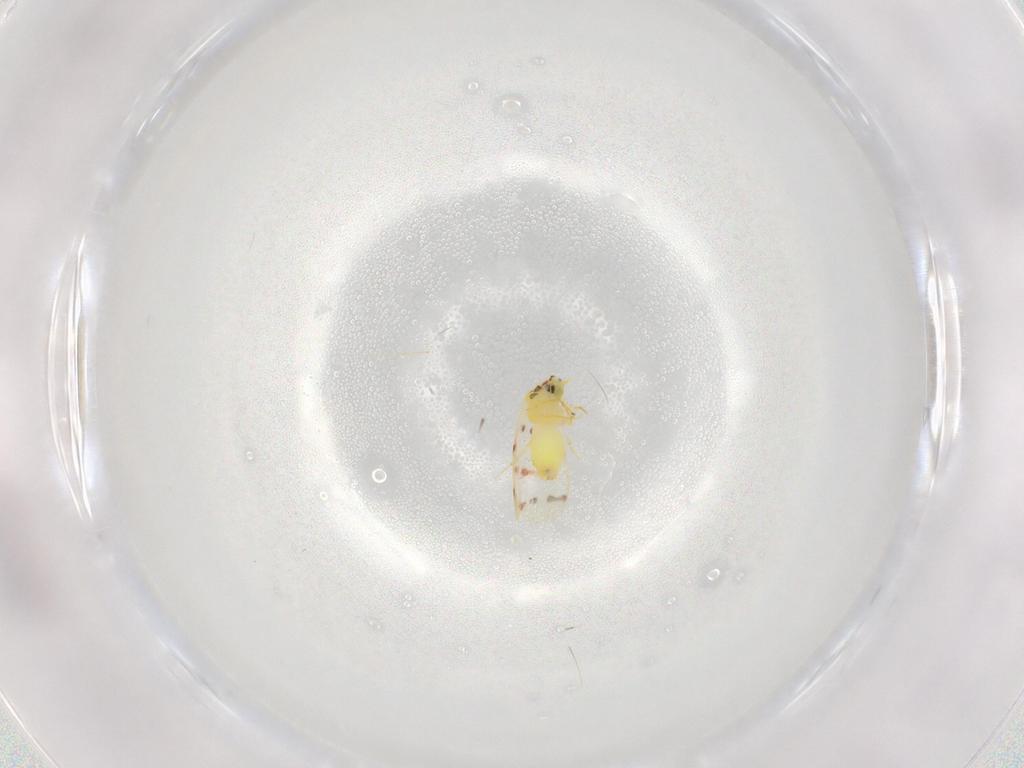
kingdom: Animalia
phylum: Arthropoda
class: Insecta
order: Hemiptera
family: Aleyrodidae
